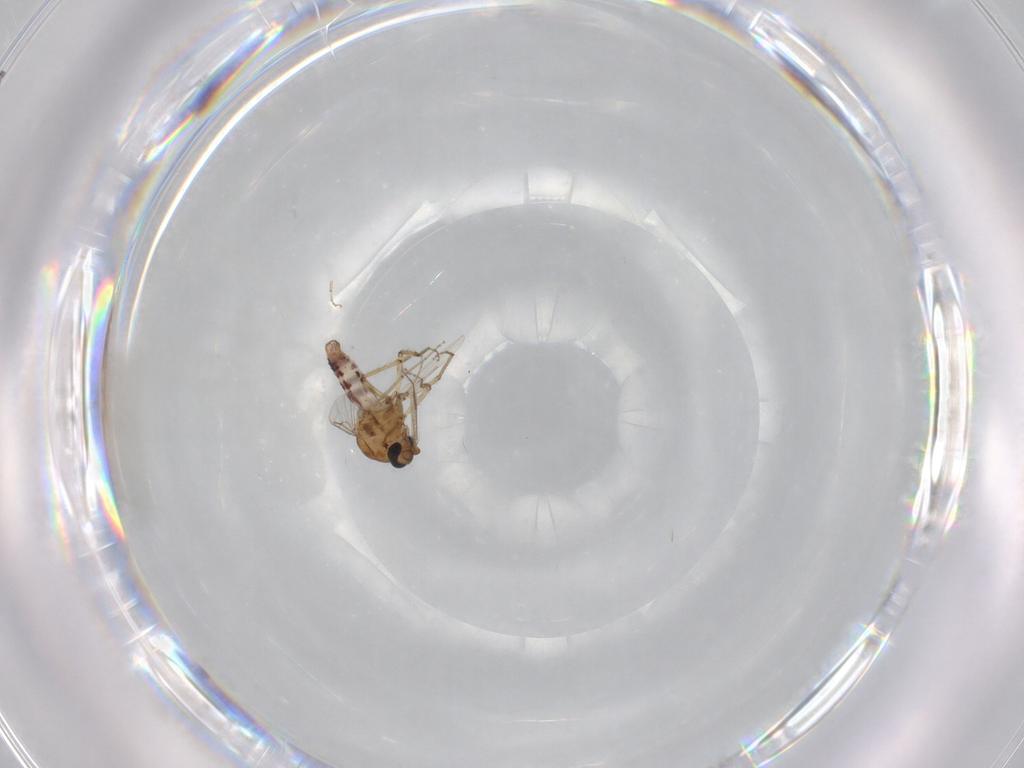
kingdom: Animalia
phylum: Arthropoda
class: Insecta
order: Diptera
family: Ceratopogonidae
